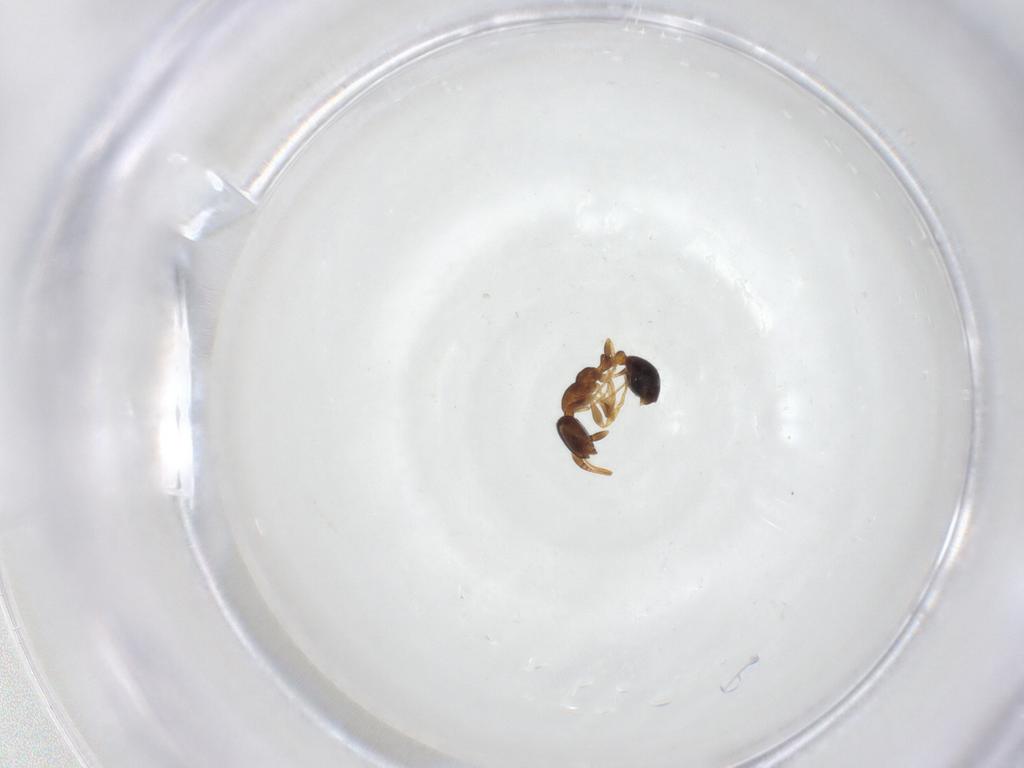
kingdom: Animalia
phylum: Arthropoda
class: Insecta
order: Hymenoptera
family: Formicidae
